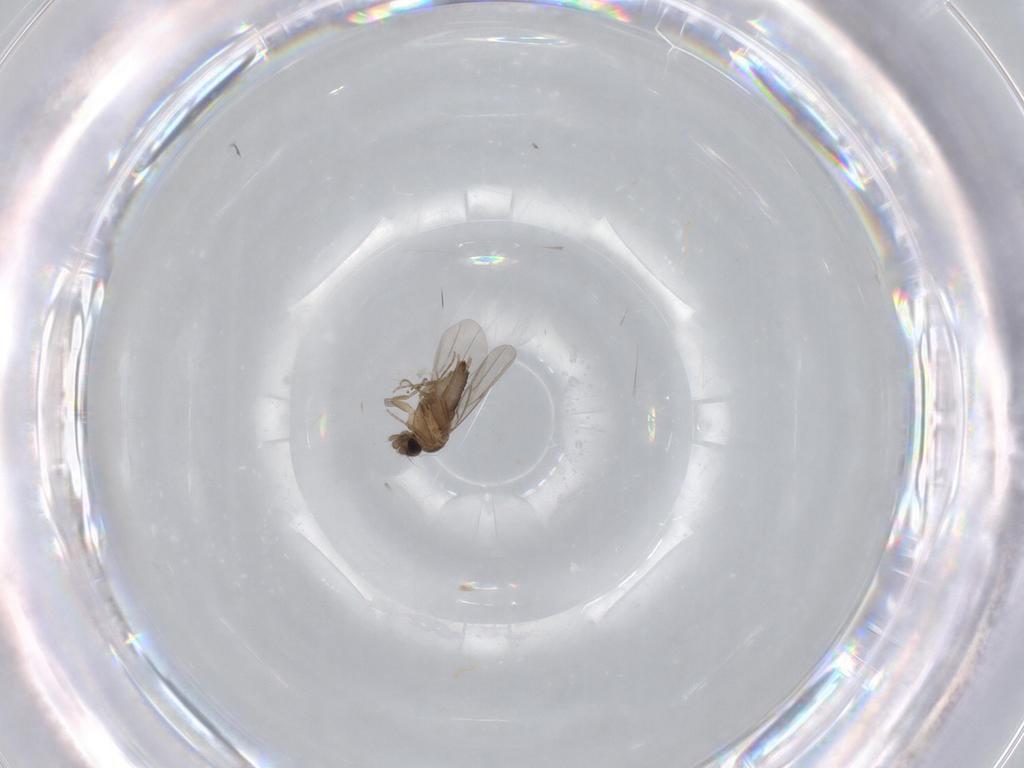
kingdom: Animalia
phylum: Arthropoda
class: Insecta
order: Diptera
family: Phoridae
